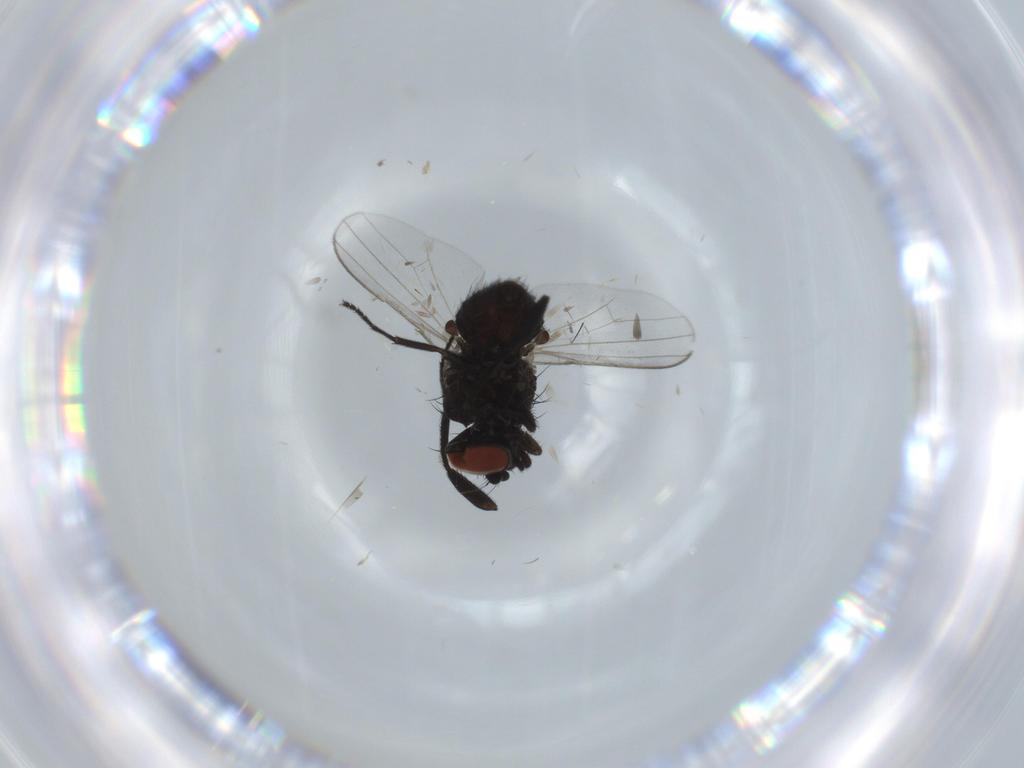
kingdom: Animalia
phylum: Arthropoda
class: Insecta
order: Diptera
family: Milichiidae
